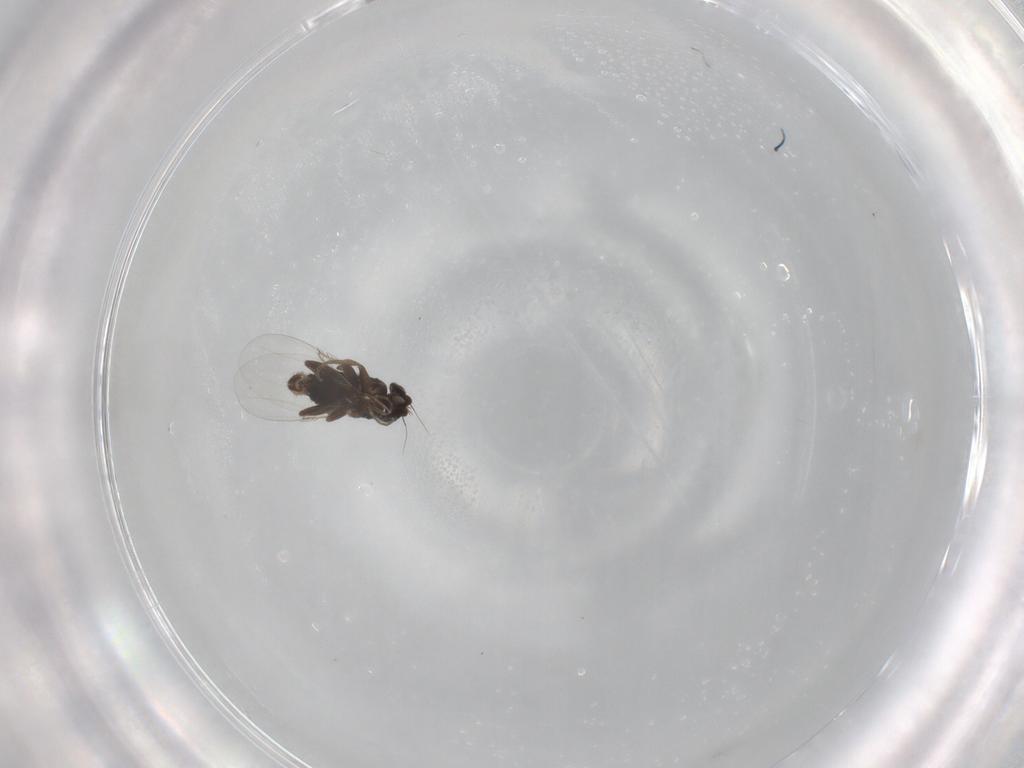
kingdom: Animalia
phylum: Arthropoda
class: Insecta
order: Diptera
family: Phoridae
